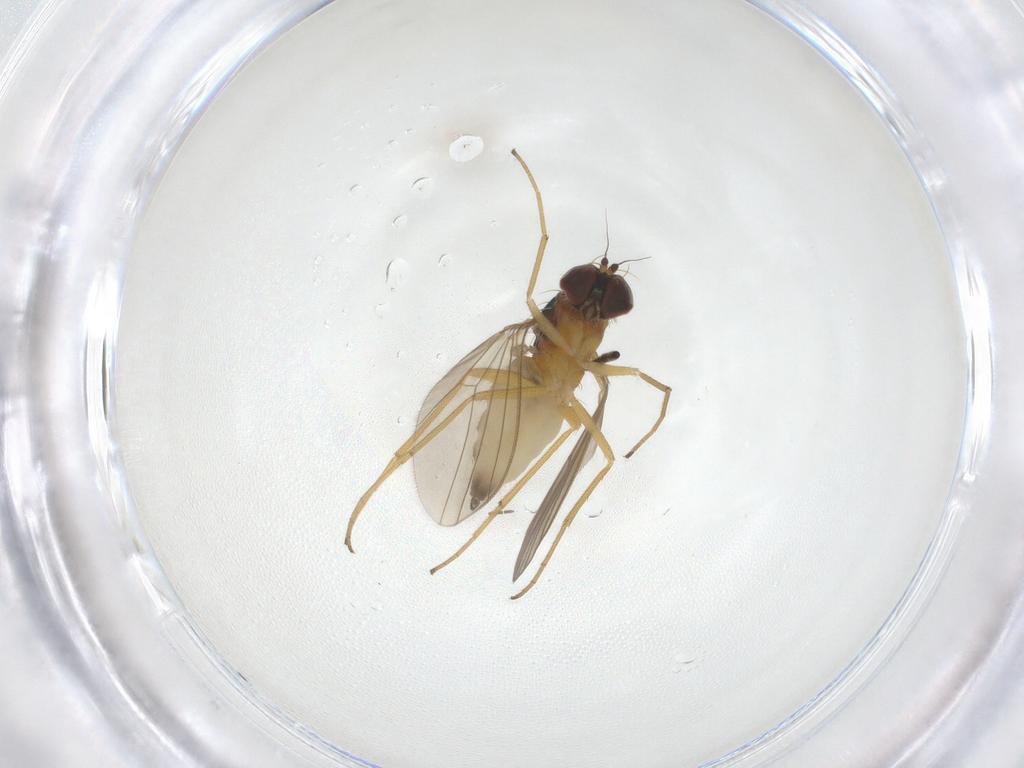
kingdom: Animalia
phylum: Arthropoda
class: Insecta
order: Diptera
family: Dolichopodidae
